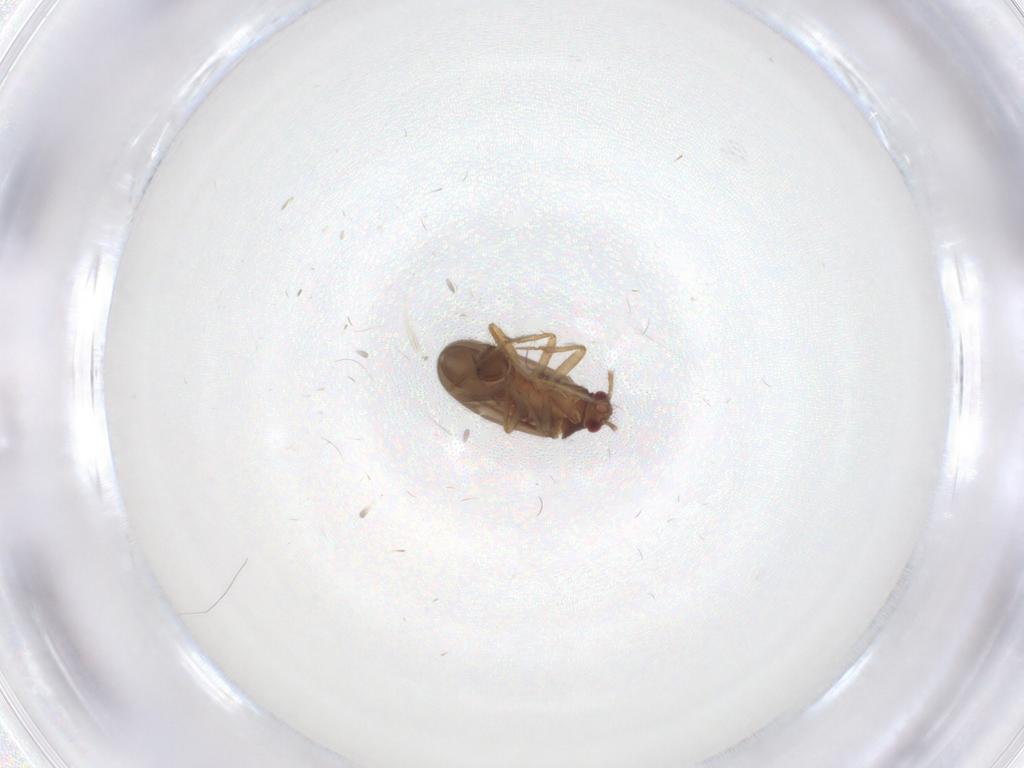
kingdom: Animalia
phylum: Arthropoda
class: Insecta
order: Hemiptera
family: Ceratocombidae
